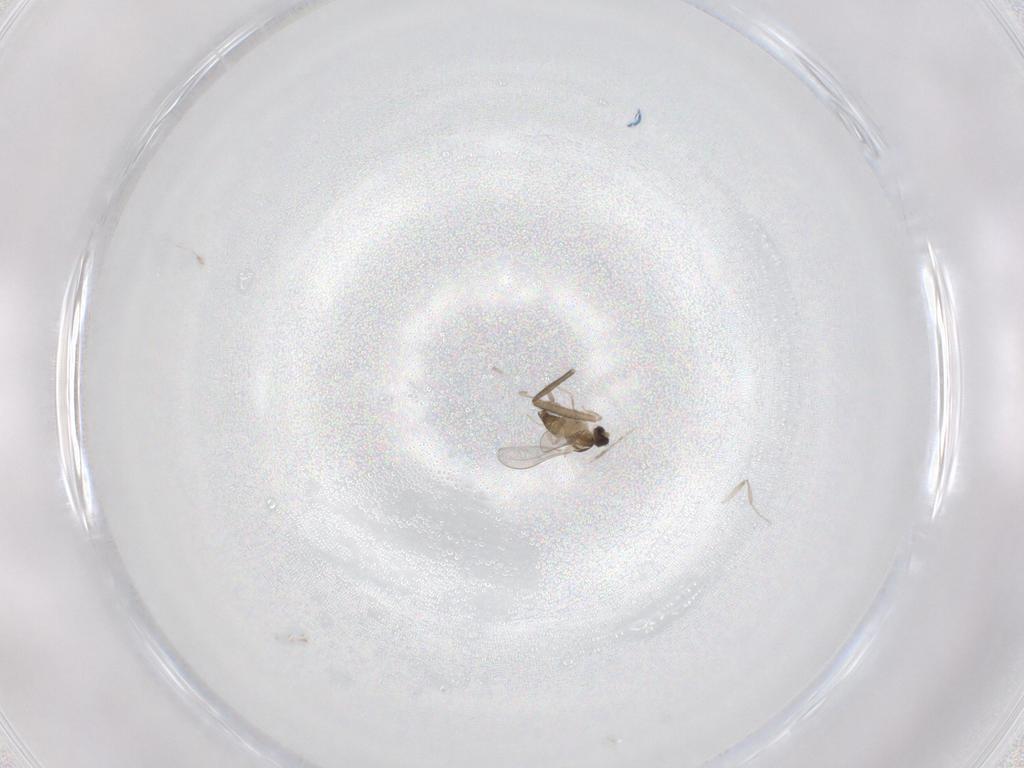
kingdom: Animalia
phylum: Arthropoda
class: Insecta
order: Diptera
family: Cecidomyiidae
